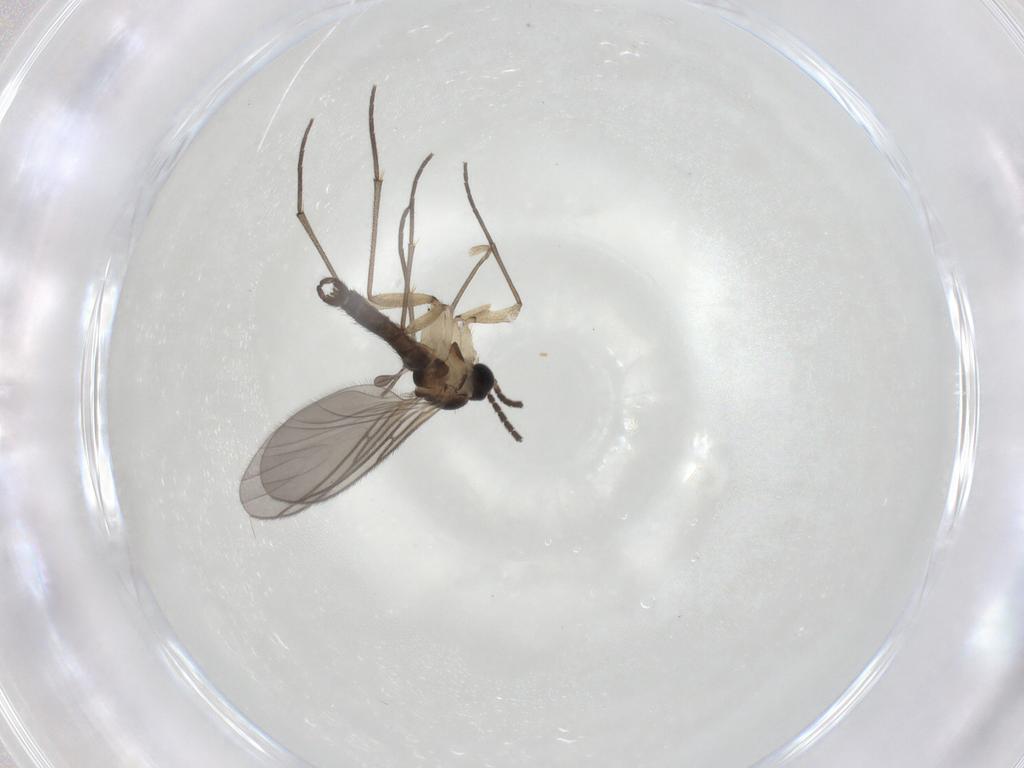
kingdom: Animalia
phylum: Arthropoda
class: Insecta
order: Diptera
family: Sciaridae
